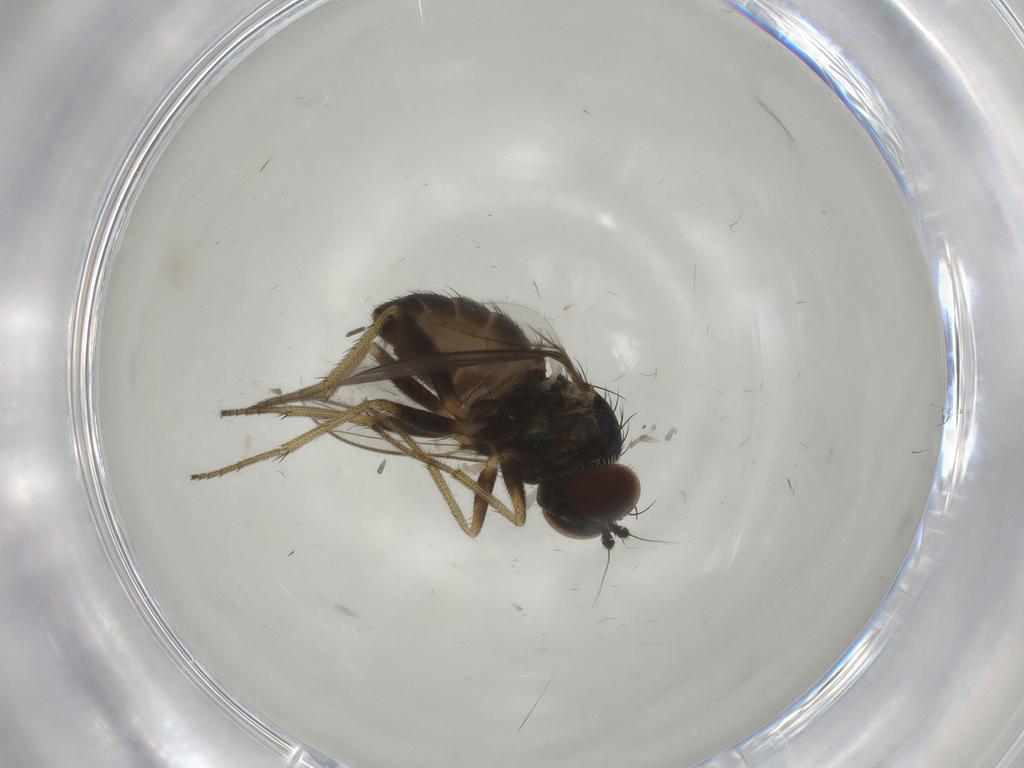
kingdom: Animalia
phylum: Arthropoda
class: Insecta
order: Diptera
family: Dolichopodidae
